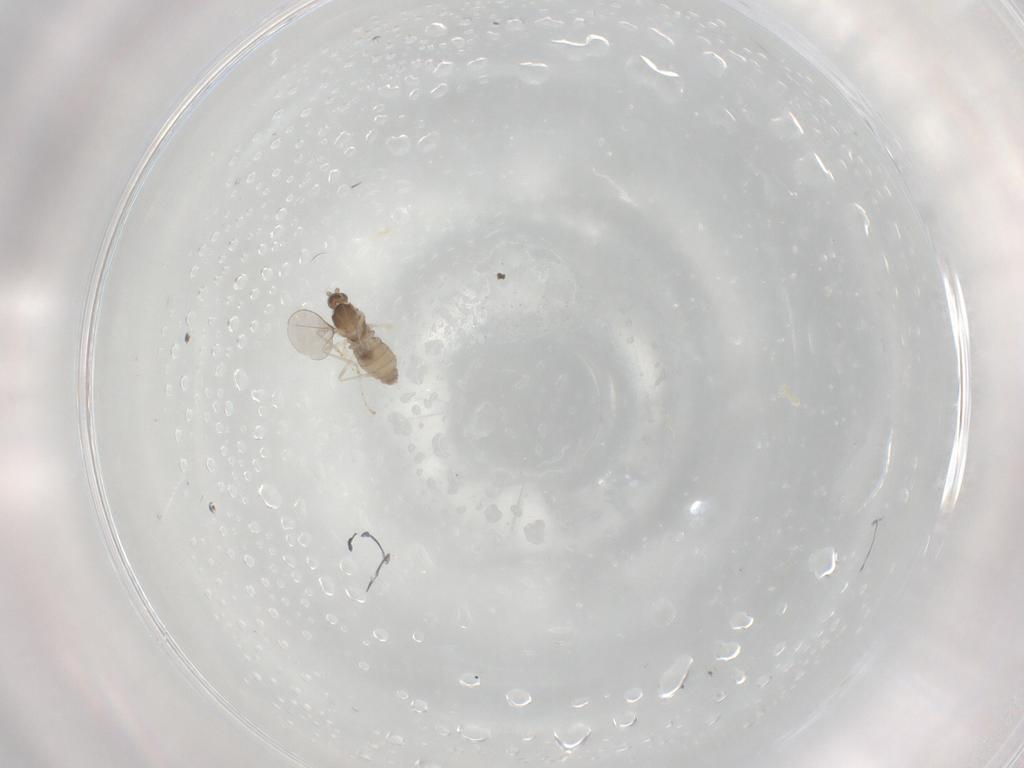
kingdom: Animalia
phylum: Arthropoda
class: Insecta
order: Diptera
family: Cecidomyiidae
